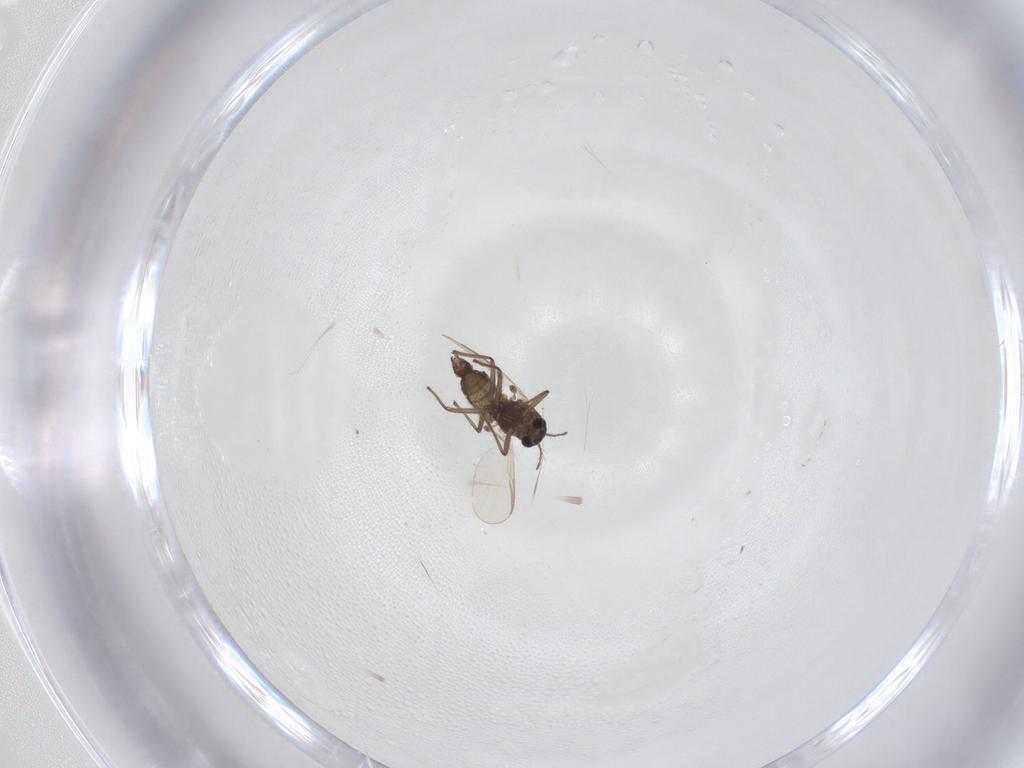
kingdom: Animalia
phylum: Arthropoda
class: Insecta
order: Diptera
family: Chironomidae
